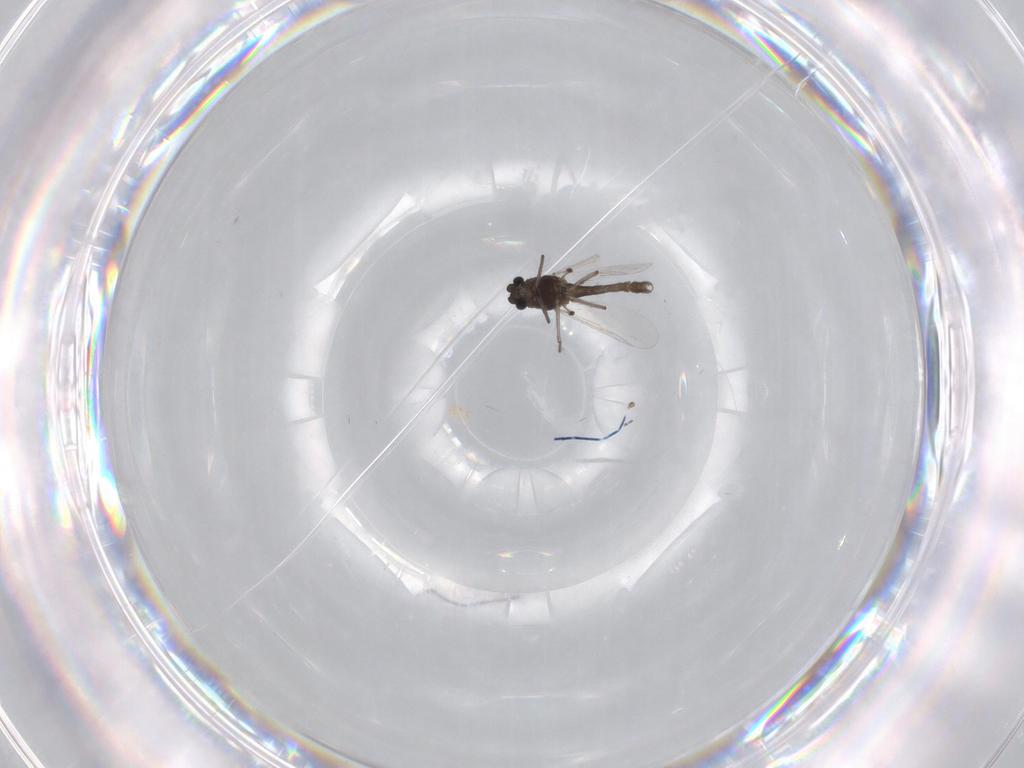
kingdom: Animalia
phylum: Arthropoda
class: Insecta
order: Diptera
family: Chironomidae
